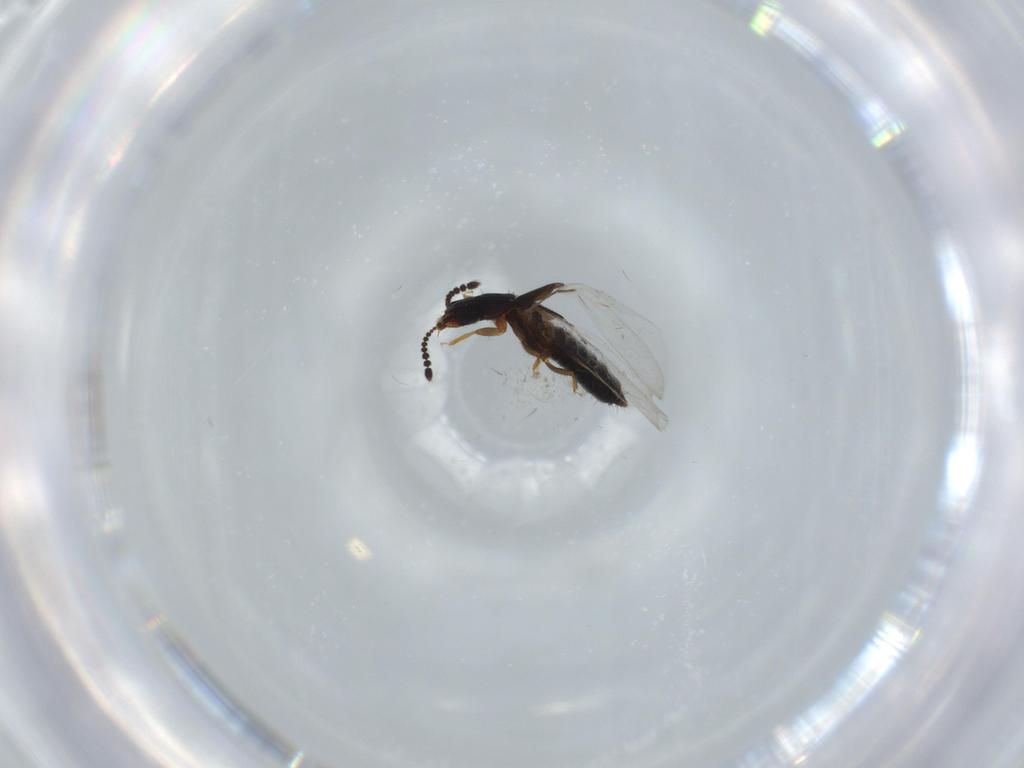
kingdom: Animalia
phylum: Arthropoda
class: Insecta
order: Coleoptera
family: Staphylinidae
